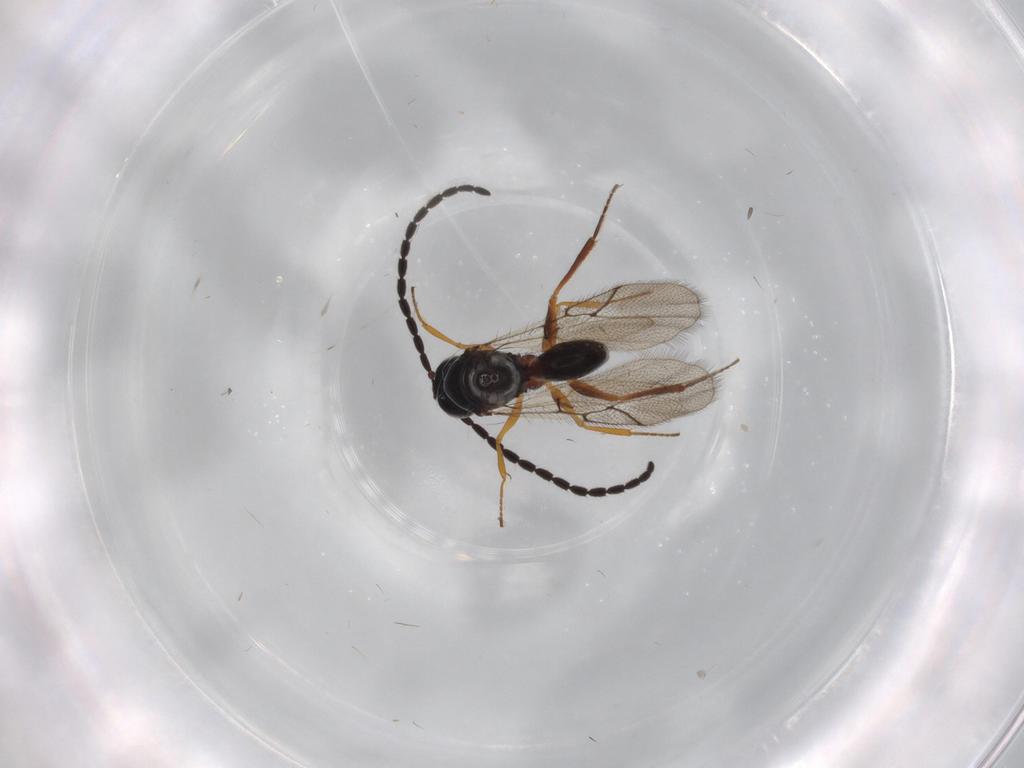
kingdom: Animalia
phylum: Arthropoda
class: Insecta
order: Hymenoptera
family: Figitidae
